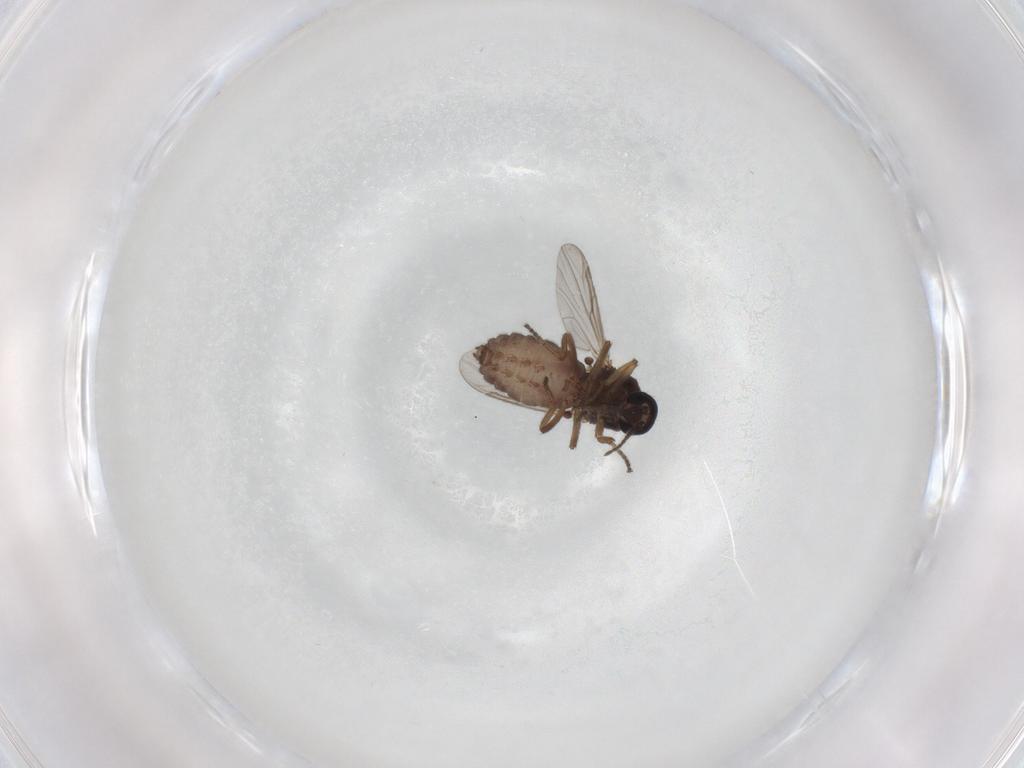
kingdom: Animalia
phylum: Arthropoda
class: Insecta
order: Diptera
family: Ceratopogonidae
